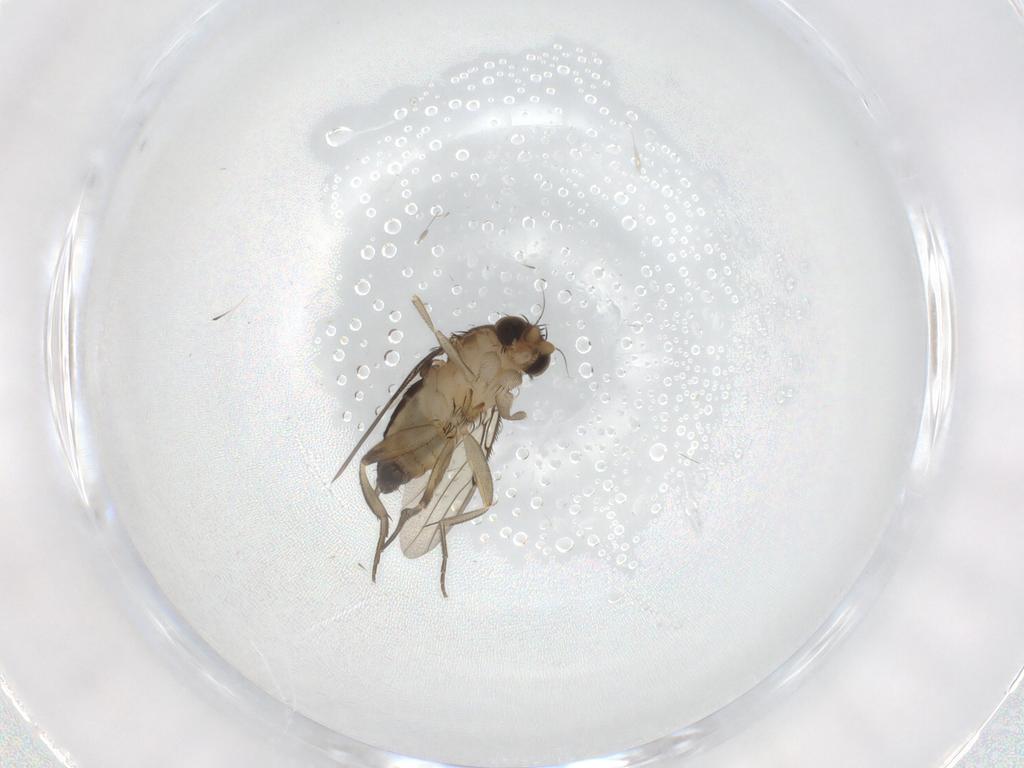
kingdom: Animalia
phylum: Arthropoda
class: Insecta
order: Diptera
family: Phoridae
